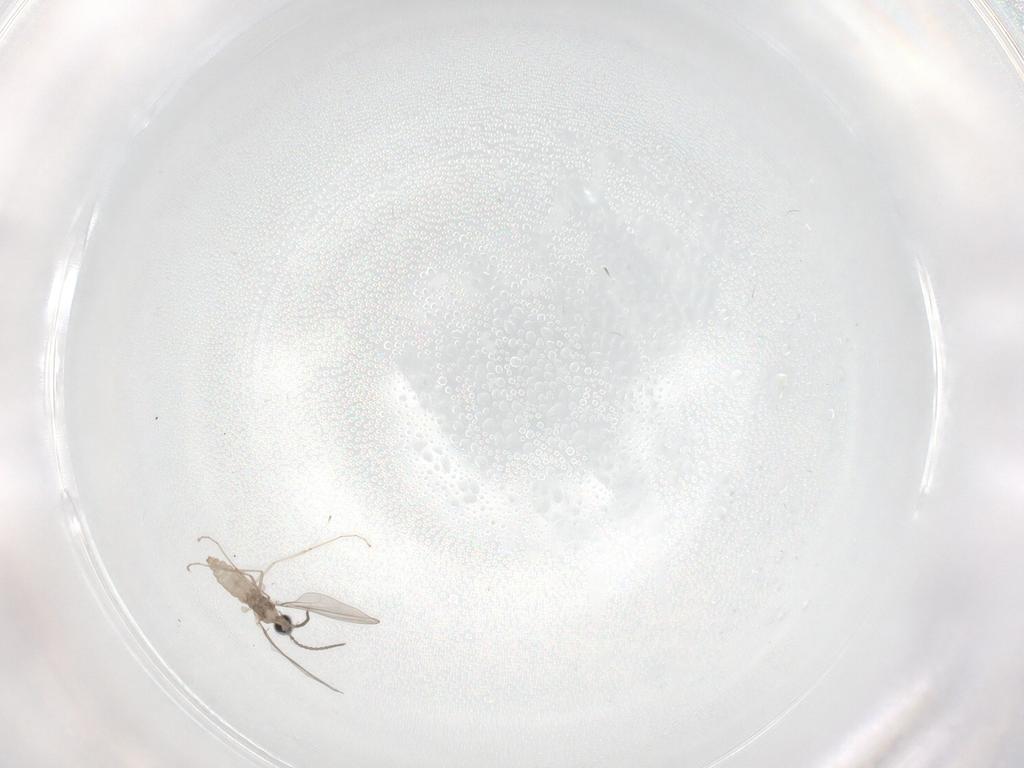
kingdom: Animalia
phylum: Arthropoda
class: Insecta
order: Diptera
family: Cecidomyiidae
